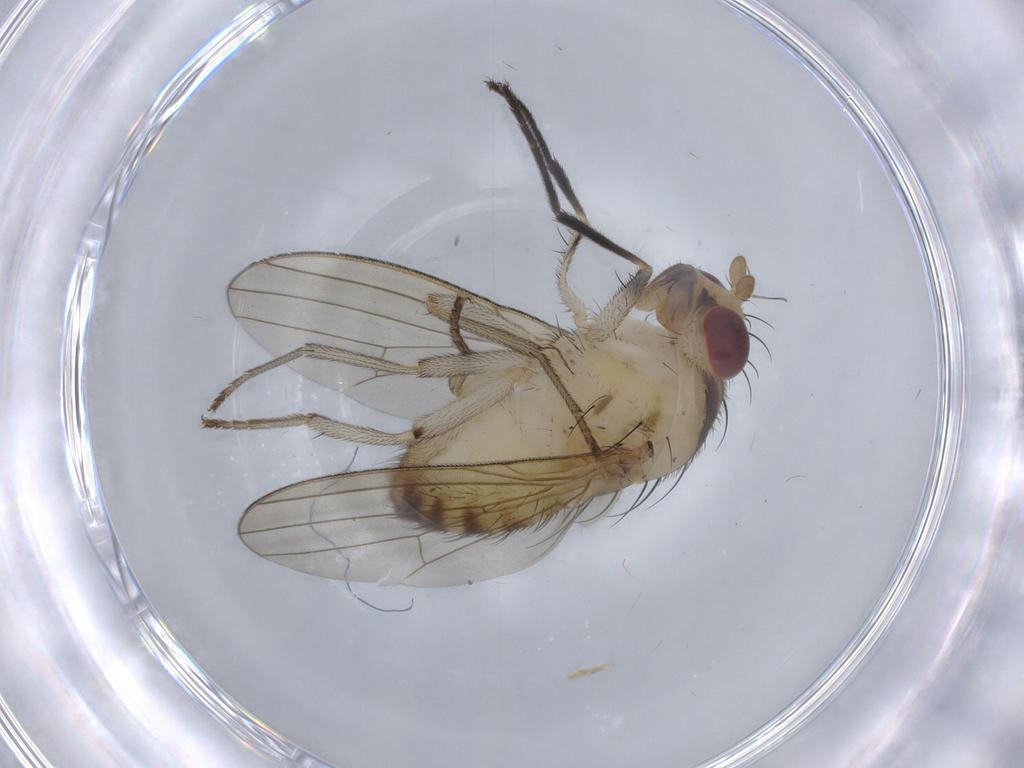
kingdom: Animalia
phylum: Arthropoda
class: Insecta
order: Diptera
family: Lauxaniidae
